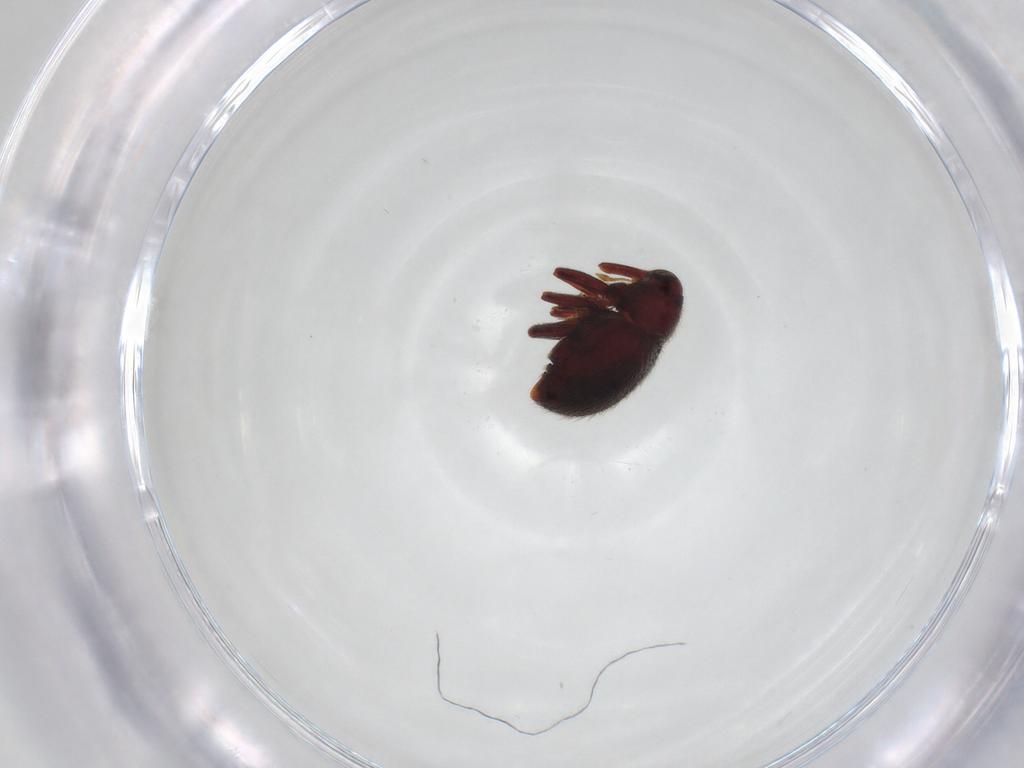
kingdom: Animalia
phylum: Arthropoda
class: Insecta
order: Coleoptera
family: Curculionidae
